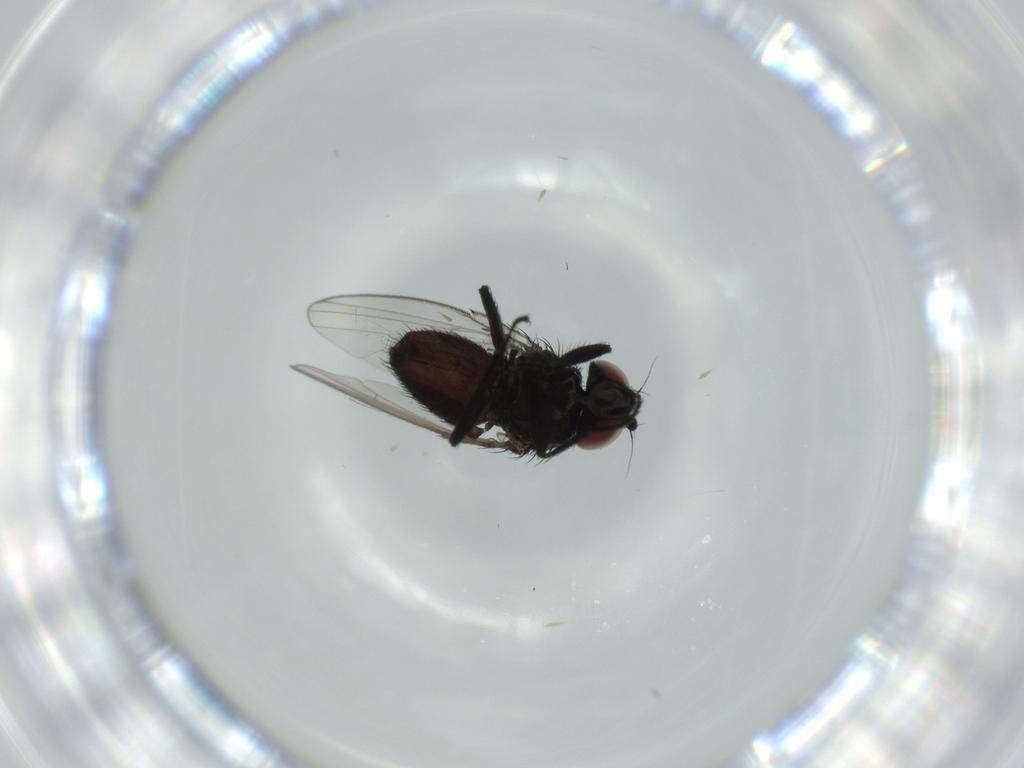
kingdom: Animalia
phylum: Arthropoda
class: Insecta
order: Diptera
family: Milichiidae
